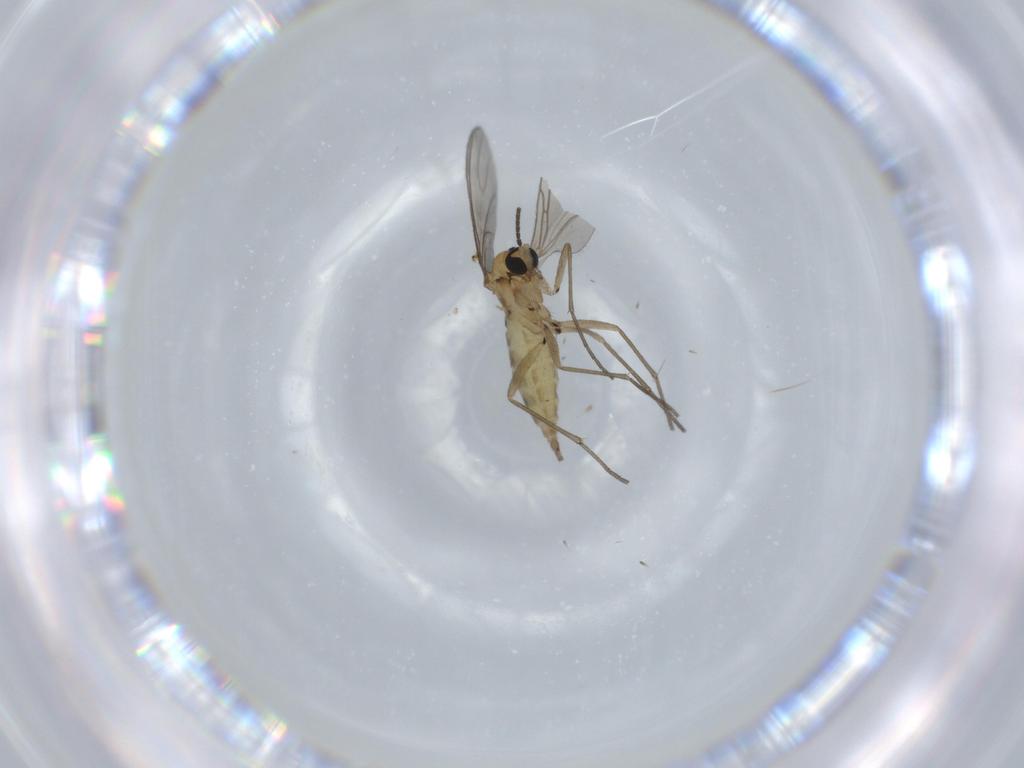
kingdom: Animalia
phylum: Arthropoda
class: Insecta
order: Diptera
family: Sciaridae
